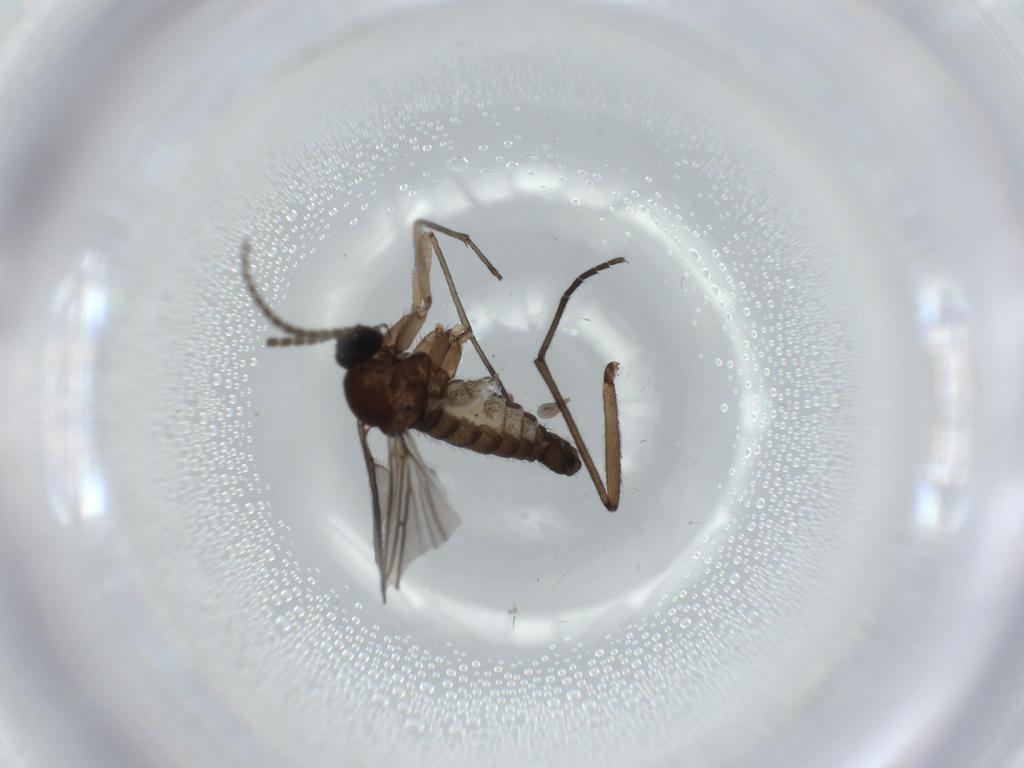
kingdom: Animalia
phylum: Arthropoda
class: Insecta
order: Diptera
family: Sciaridae
